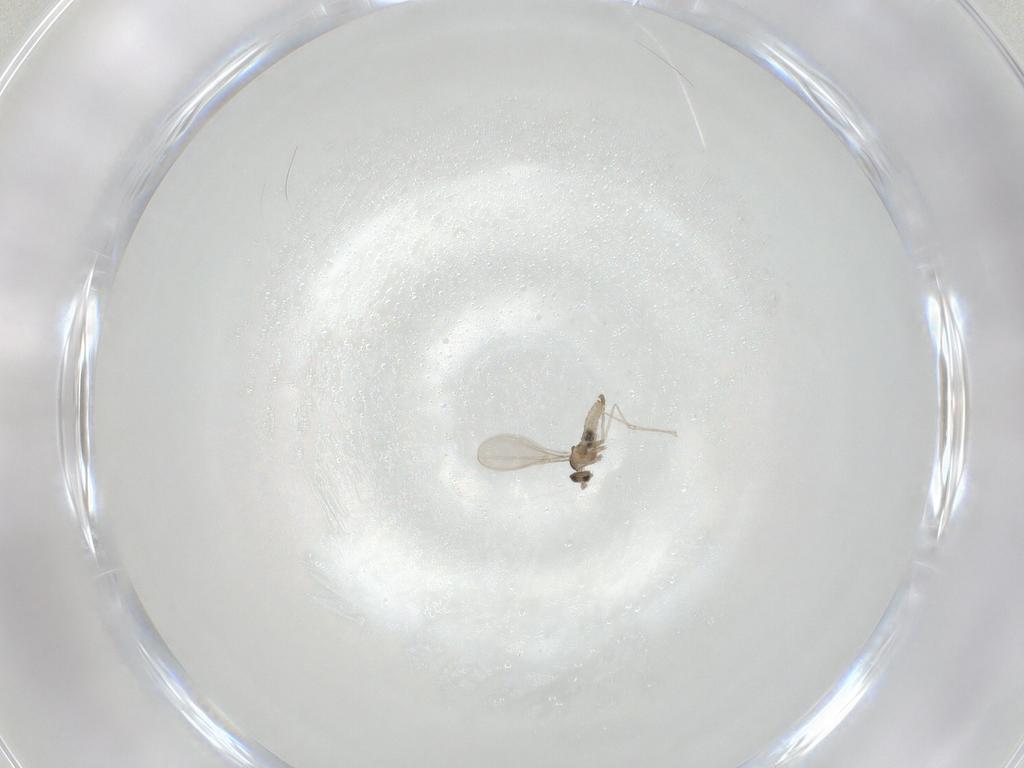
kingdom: Animalia
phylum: Arthropoda
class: Insecta
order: Diptera
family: Cecidomyiidae
